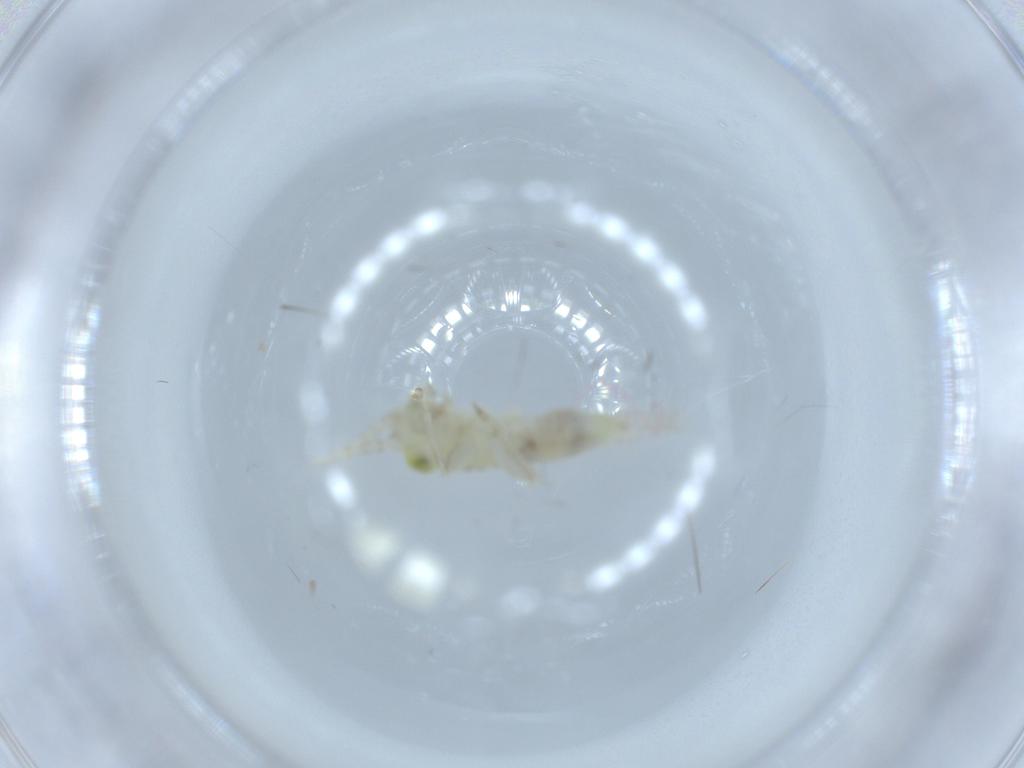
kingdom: Animalia
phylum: Arthropoda
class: Insecta
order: Orthoptera
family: Trigonidiidae
